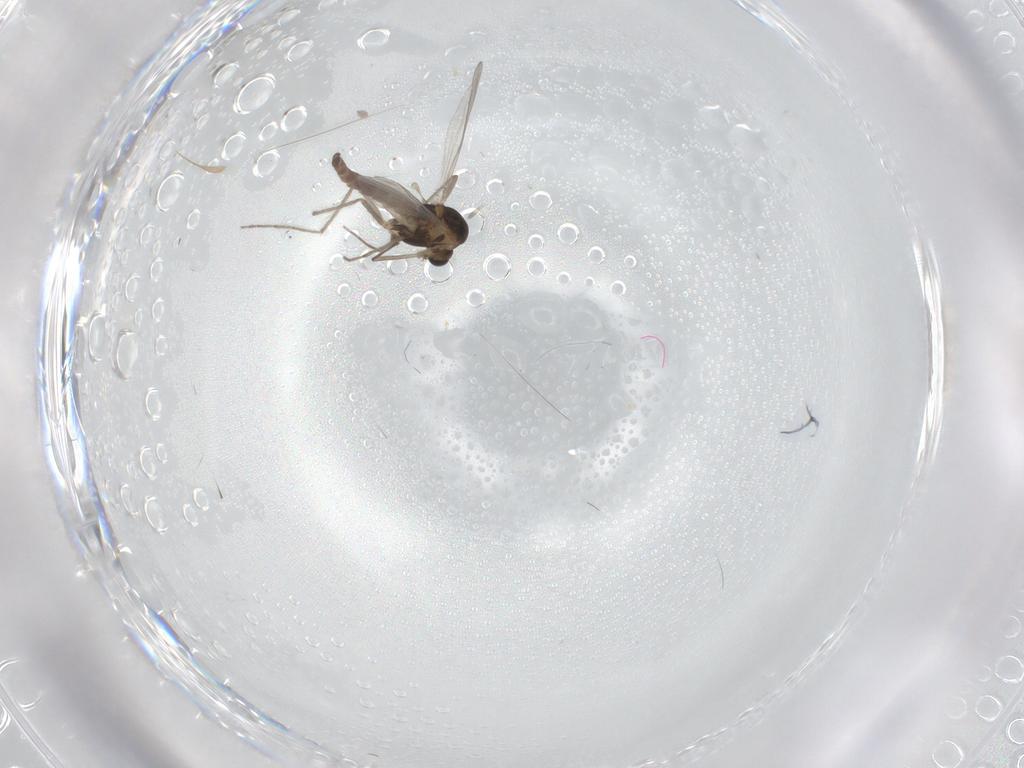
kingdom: Animalia
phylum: Arthropoda
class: Insecta
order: Diptera
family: Chironomidae
